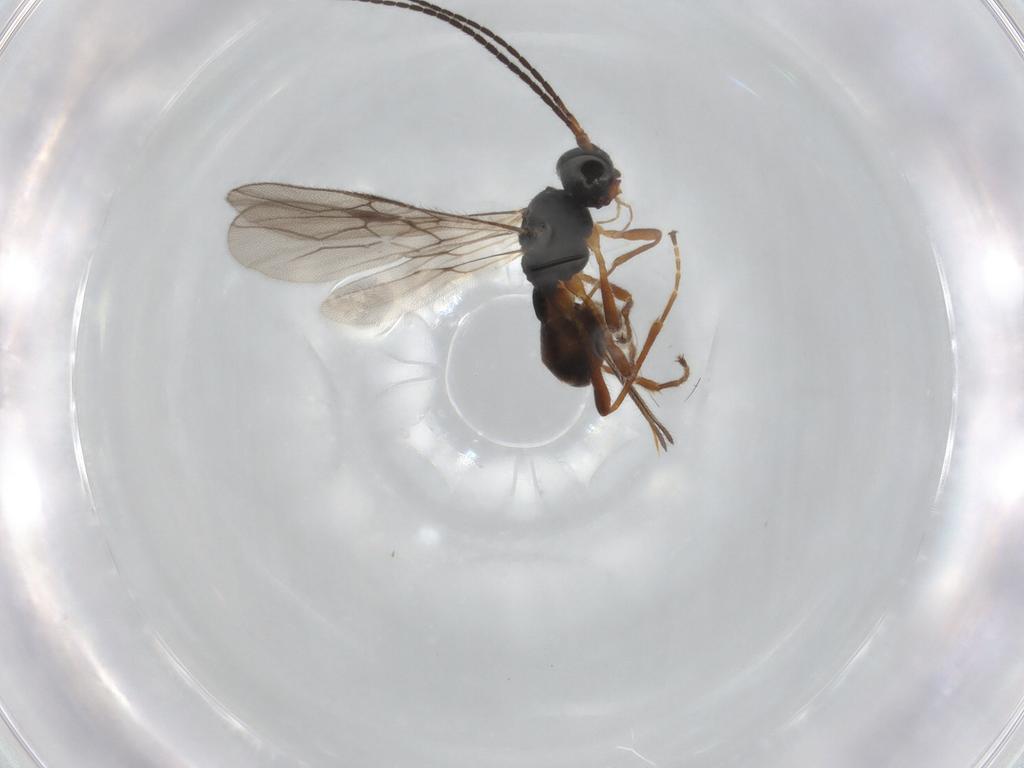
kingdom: Animalia
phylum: Arthropoda
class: Insecta
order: Hymenoptera
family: Braconidae
